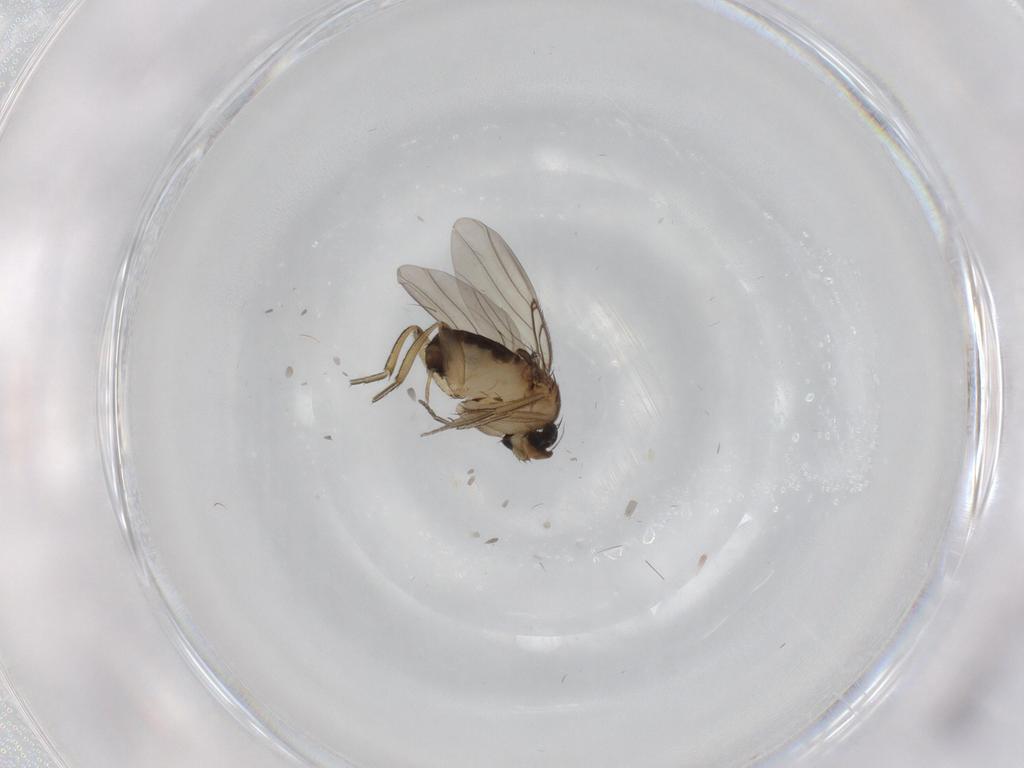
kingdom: Animalia
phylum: Arthropoda
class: Insecta
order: Diptera
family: Phoridae
